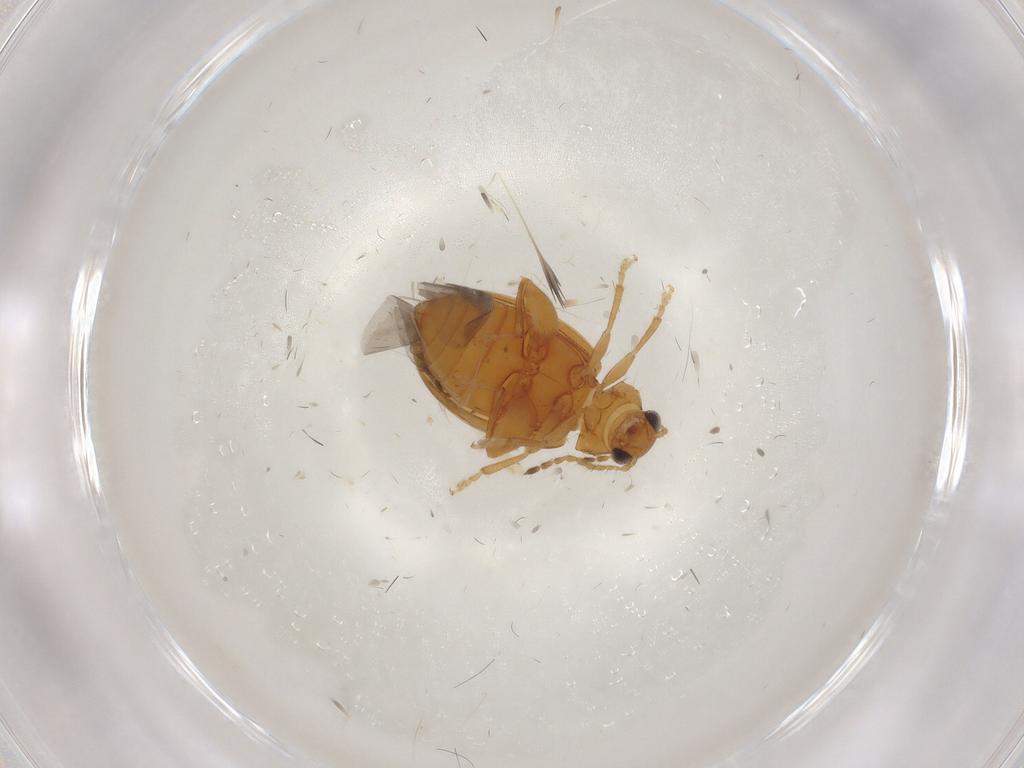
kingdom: Animalia
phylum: Arthropoda
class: Insecta
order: Coleoptera
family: Chrysomelidae
